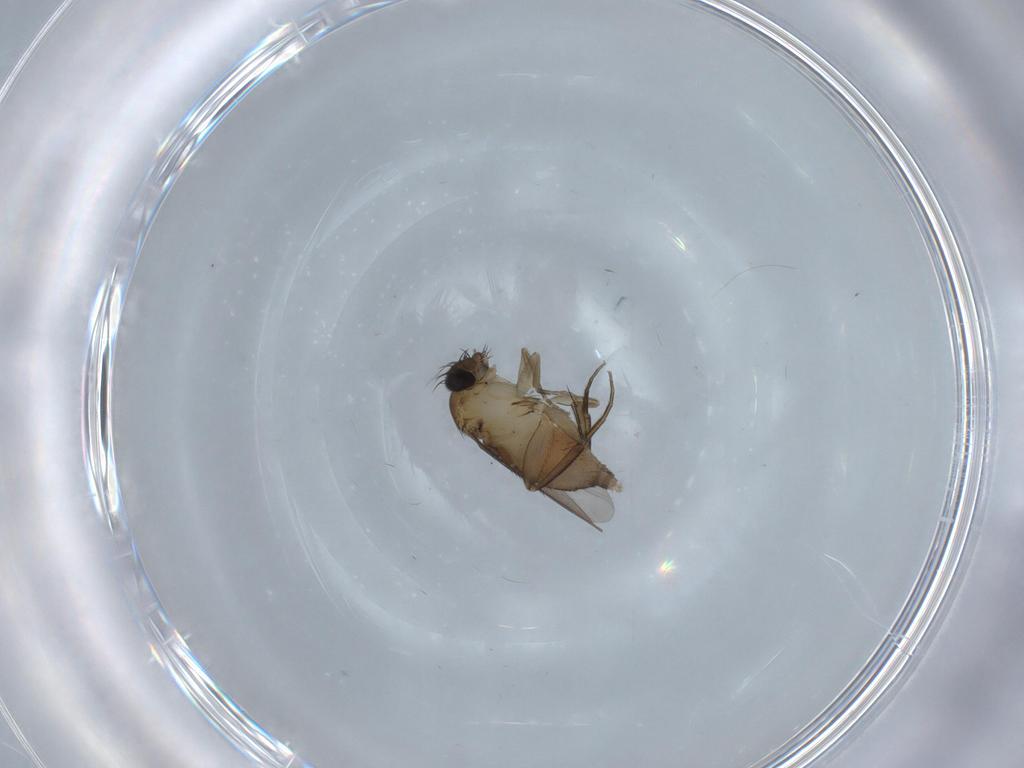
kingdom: Animalia
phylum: Arthropoda
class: Insecta
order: Diptera
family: Phoridae
